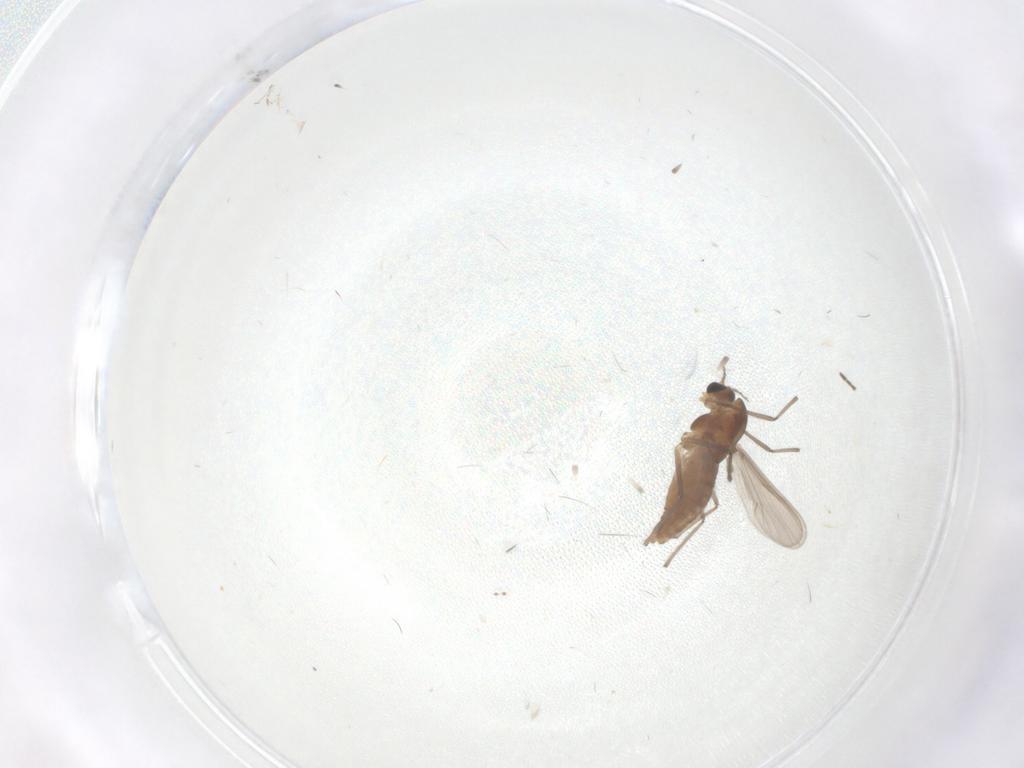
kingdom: Animalia
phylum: Arthropoda
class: Insecta
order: Diptera
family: Chironomidae
